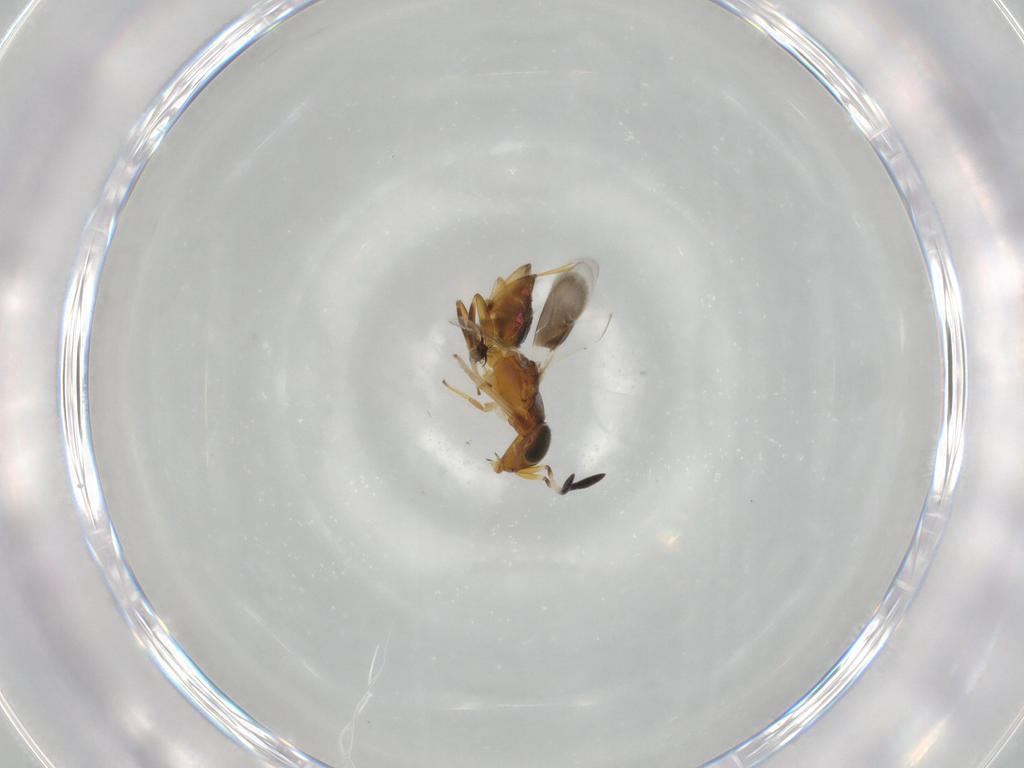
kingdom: Animalia
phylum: Arthropoda
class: Insecta
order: Hymenoptera
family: Encyrtidae
